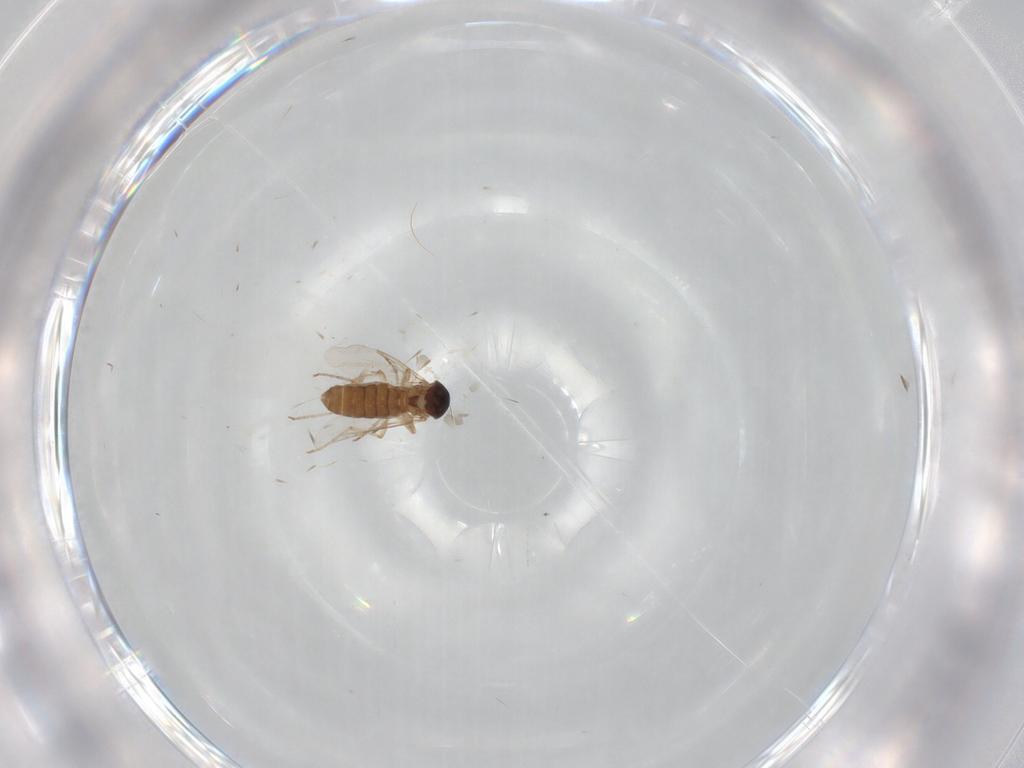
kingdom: Animalia
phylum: Arthropoda
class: Insecta
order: Diptera
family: Ceratopogonidae
